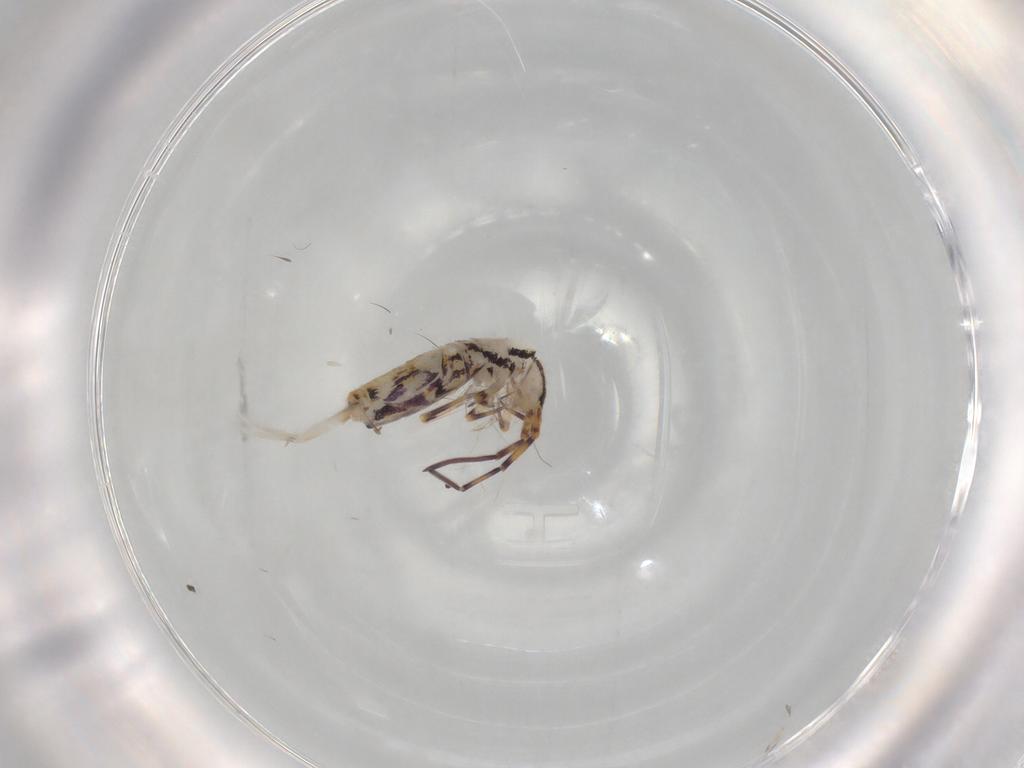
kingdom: Animalia
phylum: Arthropoda
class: Collembola
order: Entomobryomorpha
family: Entomobryidae
